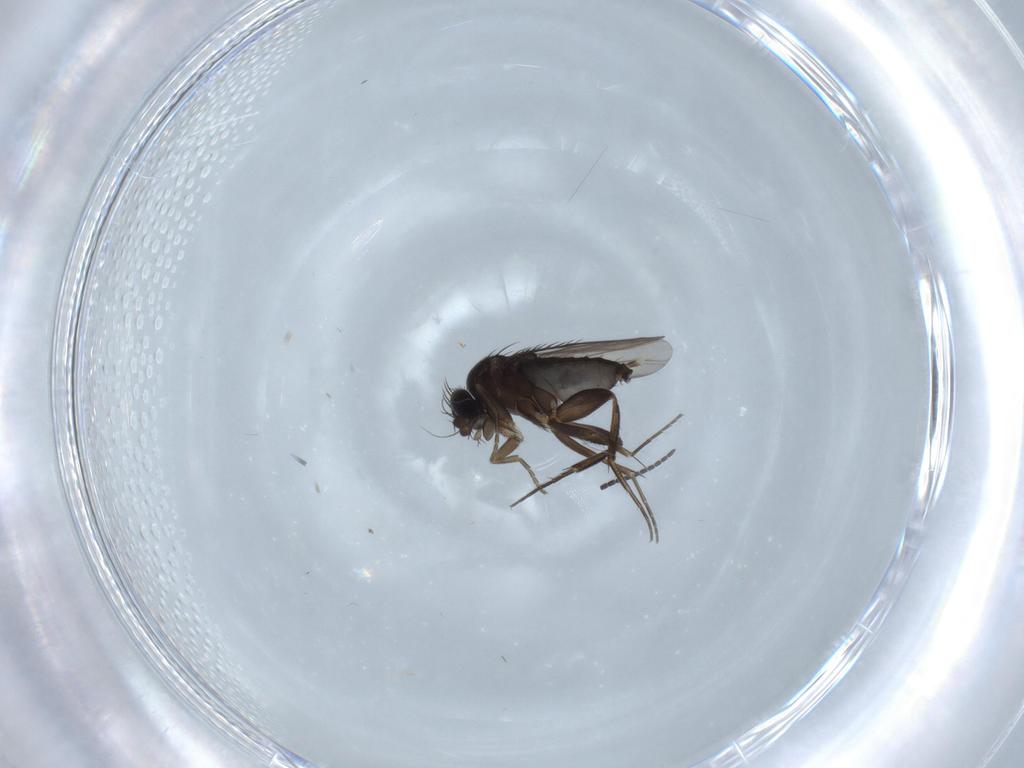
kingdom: Animalia
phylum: Arthropoda
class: Insecta
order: Diptera
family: Phoridae
